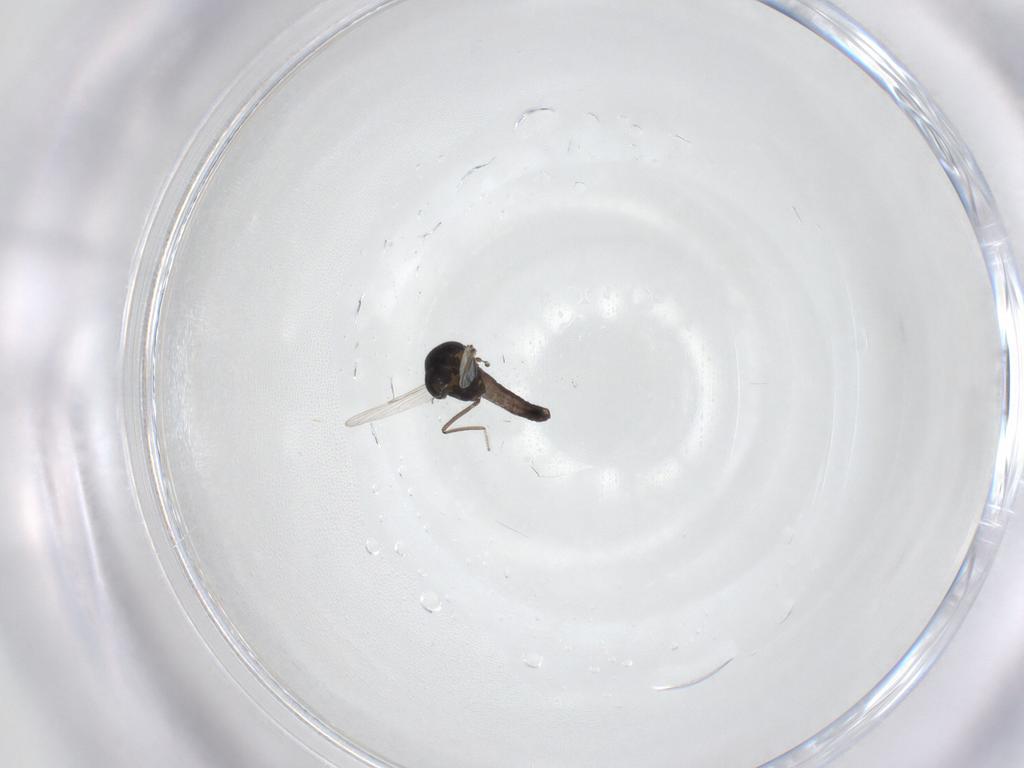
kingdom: Animalia
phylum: Arthropoda
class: Insecta
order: Diptera
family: Ceratopogonidae
